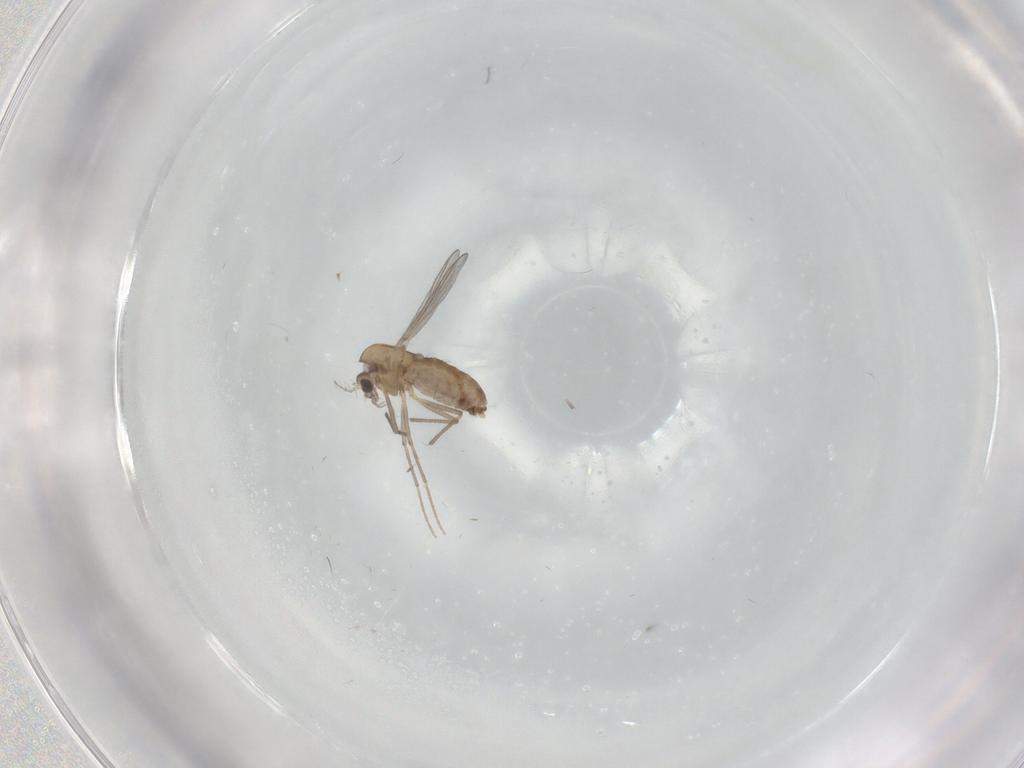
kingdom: Animalia
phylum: Arthropoda
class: Insecta
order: Diptera
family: Chironomidae
